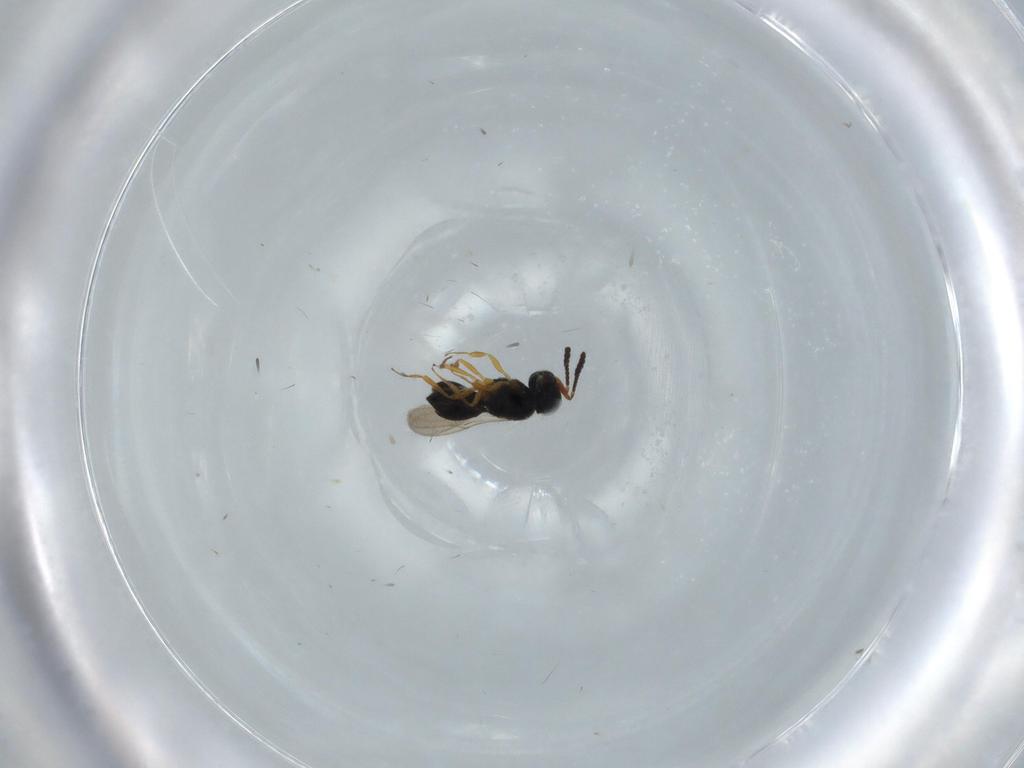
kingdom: Animalia
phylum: Arthropoda
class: Insecta
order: Hymenoptera
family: Scelionidae
